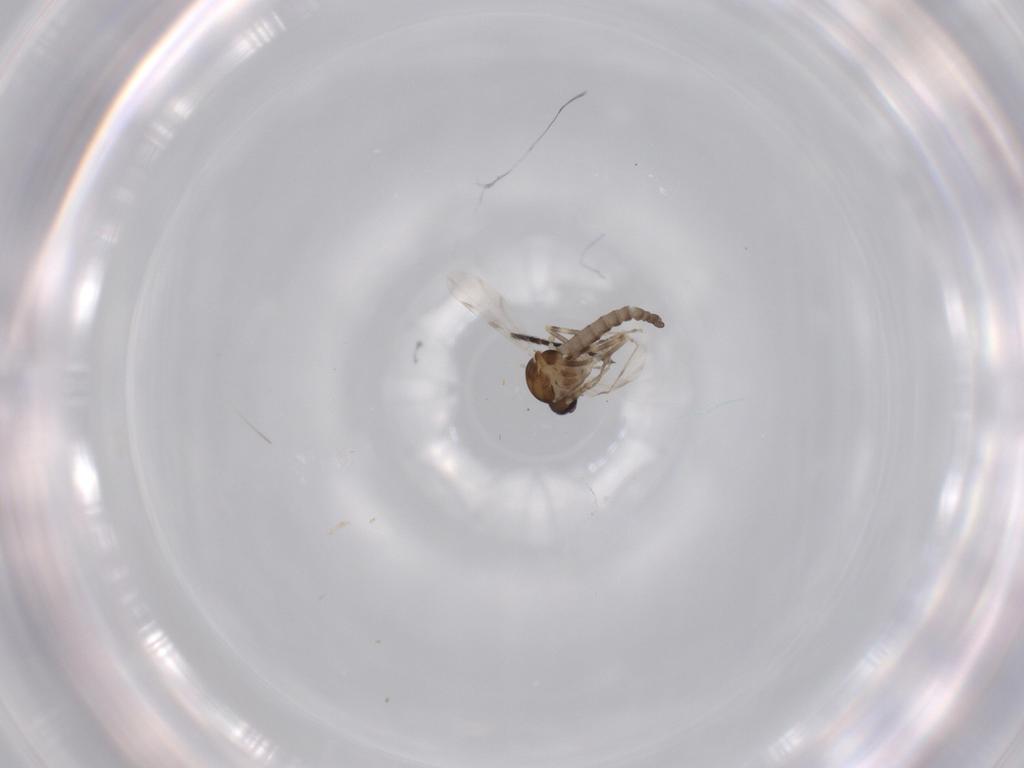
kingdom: Animalia
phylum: Arthropoda
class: Insecta
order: Diptera
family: Ceratopogonidae
